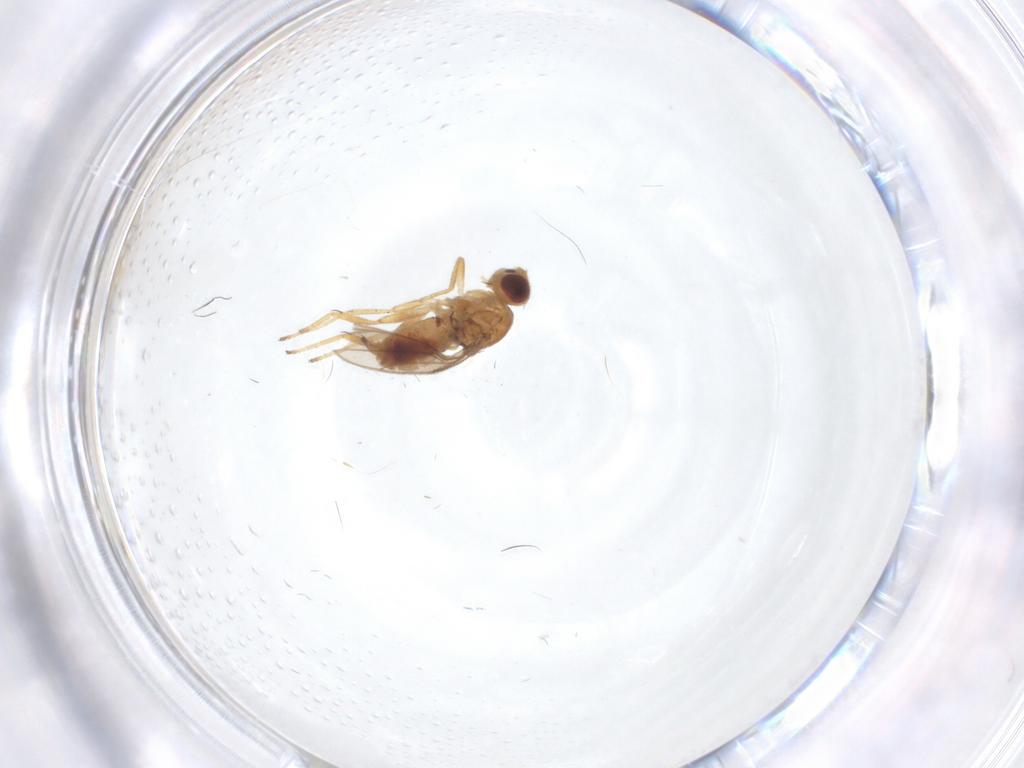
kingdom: Animalia
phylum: Arthropoda
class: Insecta
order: Diptera
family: Chloropidae
